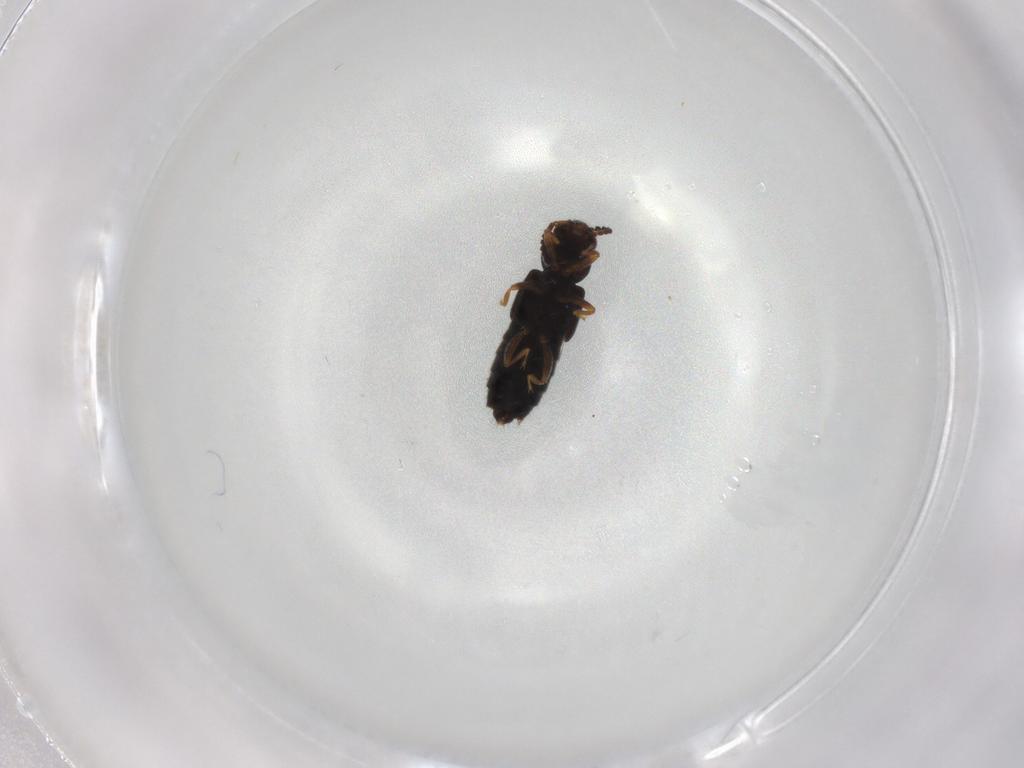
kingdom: Animalia
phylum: Arthropoda
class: Insecta
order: Coleoptera
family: Staphylinidae
